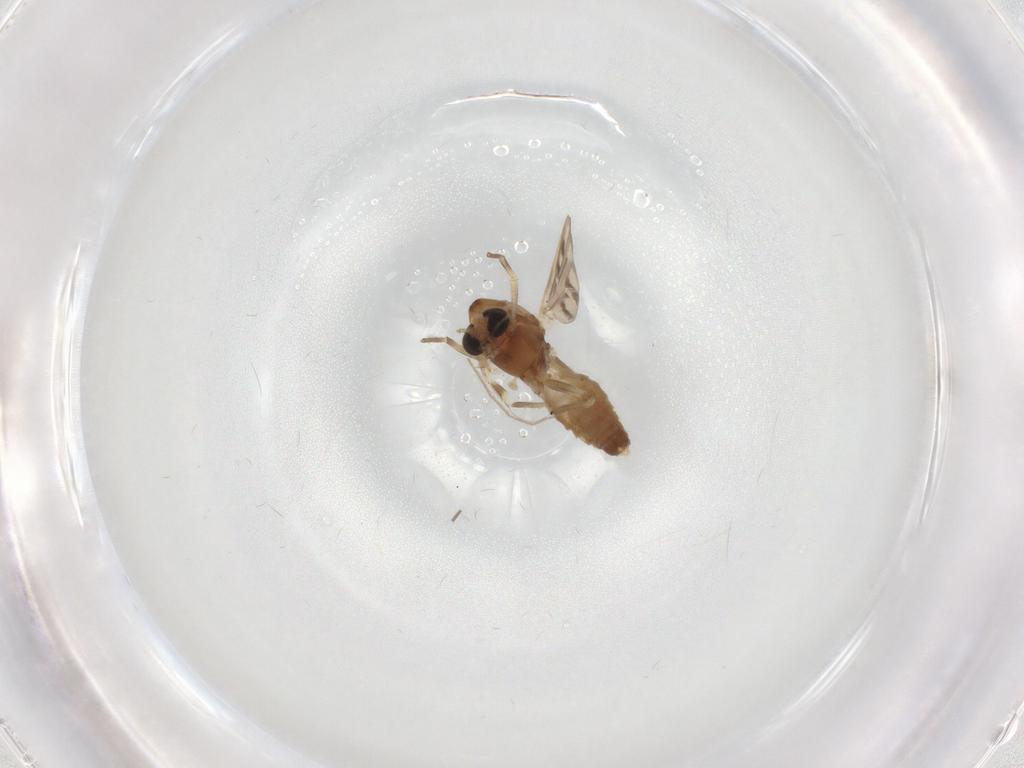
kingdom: Animalia
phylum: Arthropoda
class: Insecta
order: Diptera
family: Chironomidae
